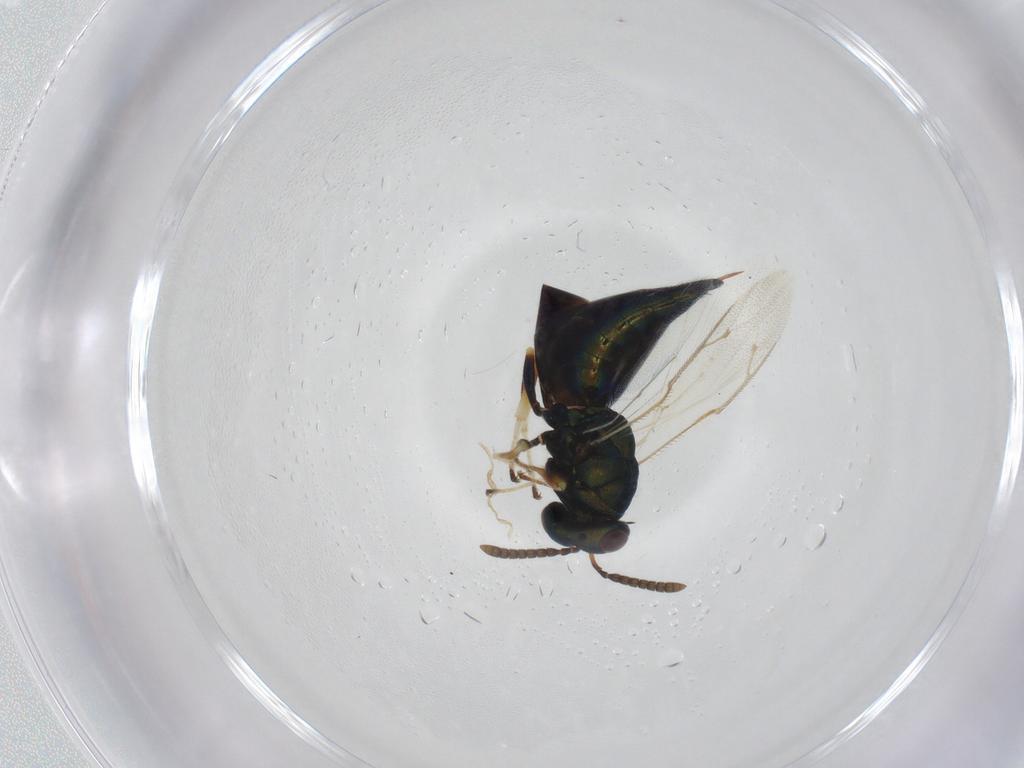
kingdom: Animalia
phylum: Arthropoda
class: Insecta
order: Hymenoptera
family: Pteromalidae
